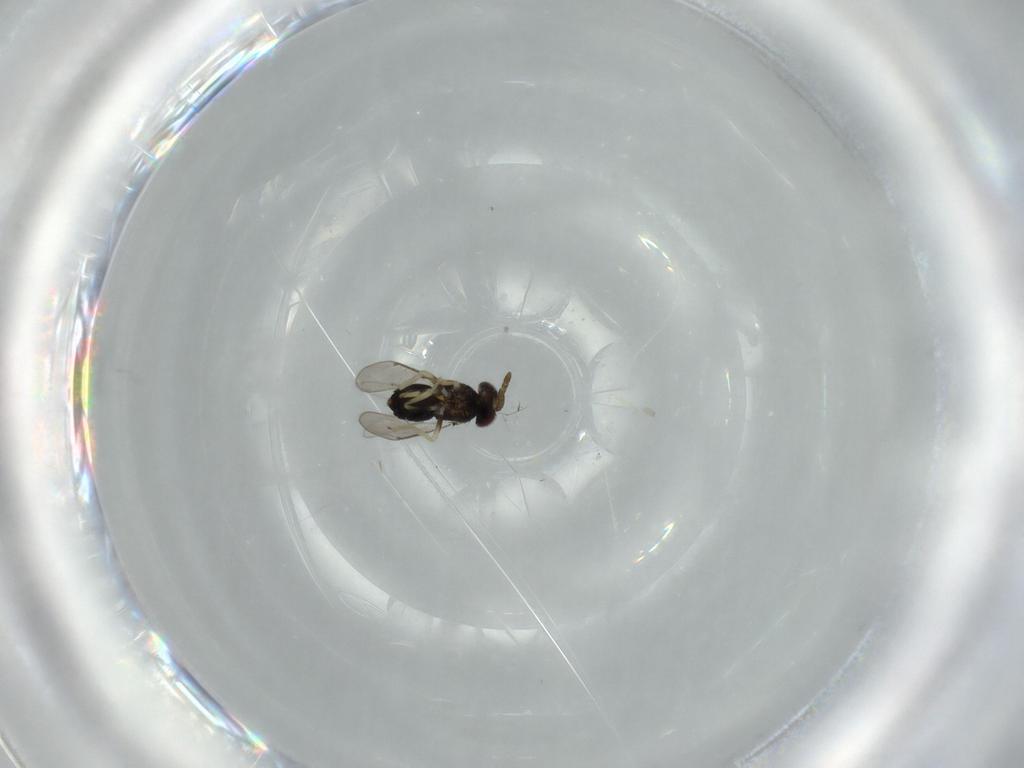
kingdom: Animalia
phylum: Arthropoda
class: Insecta
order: Hymenoptera
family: Aphelinidae
